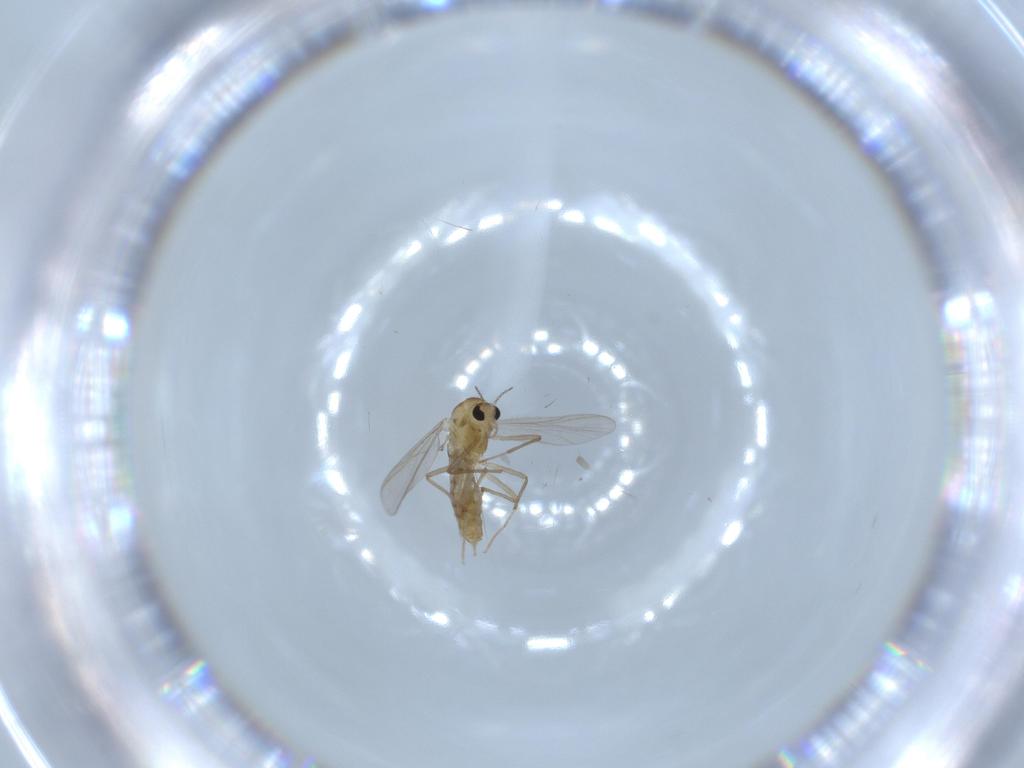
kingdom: Animalia
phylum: Arthropoda
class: Insecta
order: Diptera
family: Chironomidae
